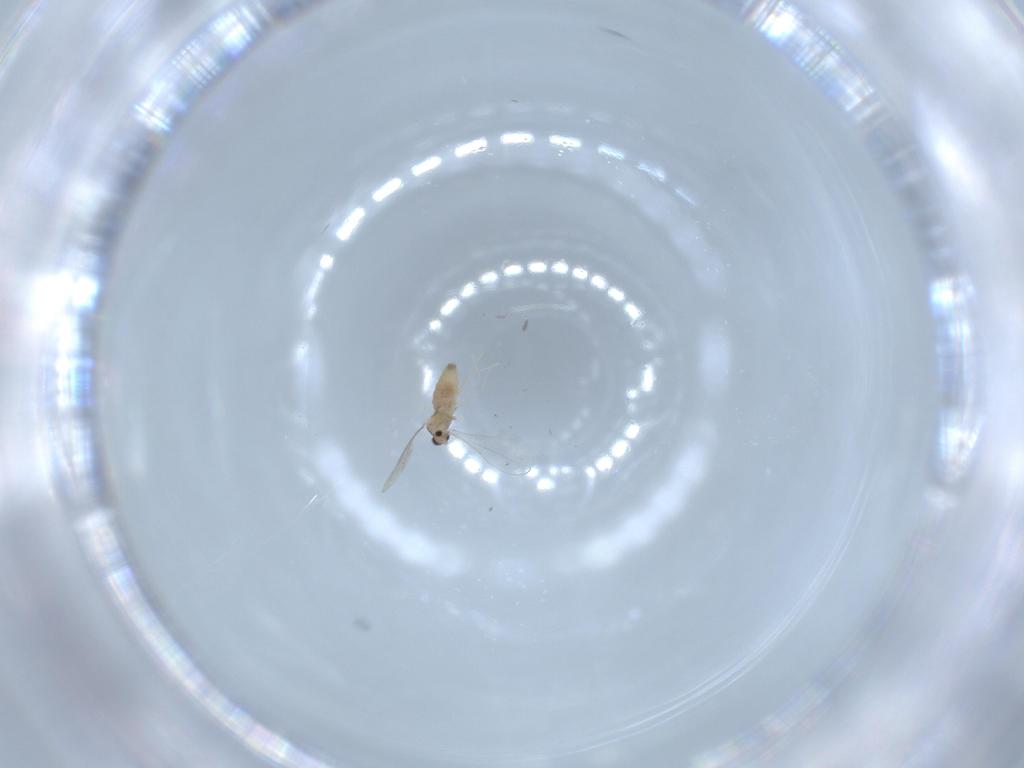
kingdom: Animalia
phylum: Arthropoda
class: Insecta
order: Diptera
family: Cecidomyiidae
